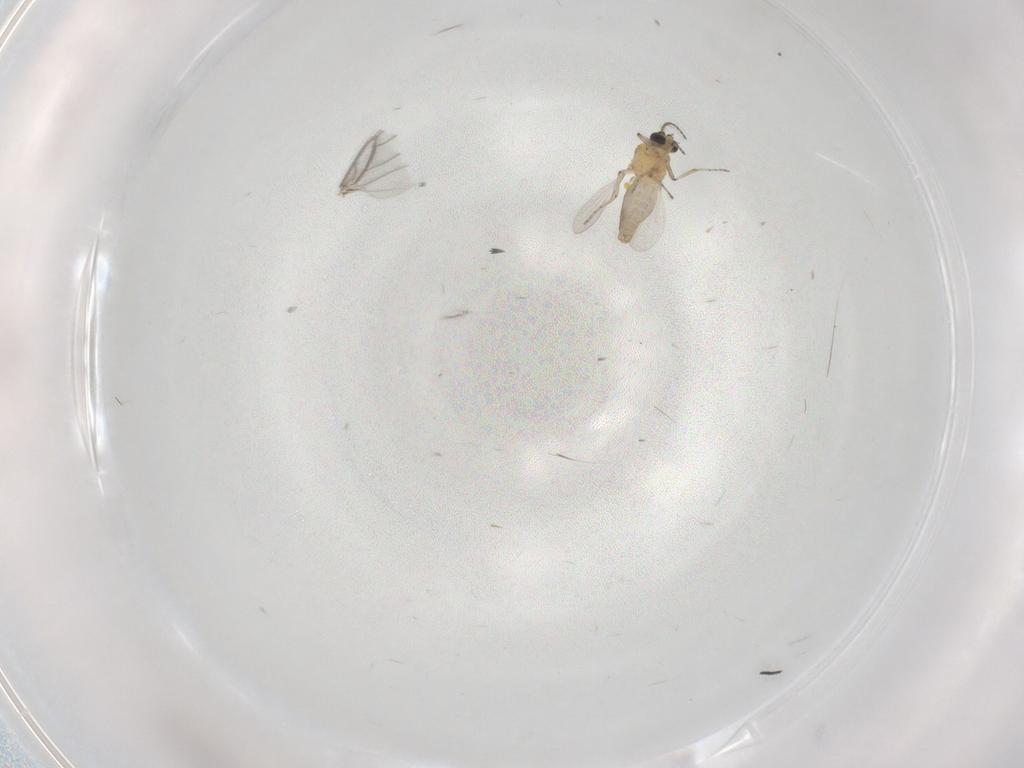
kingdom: Animalia
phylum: Arthropoda
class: Insecta
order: Diptera
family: Ceratopogonidae
